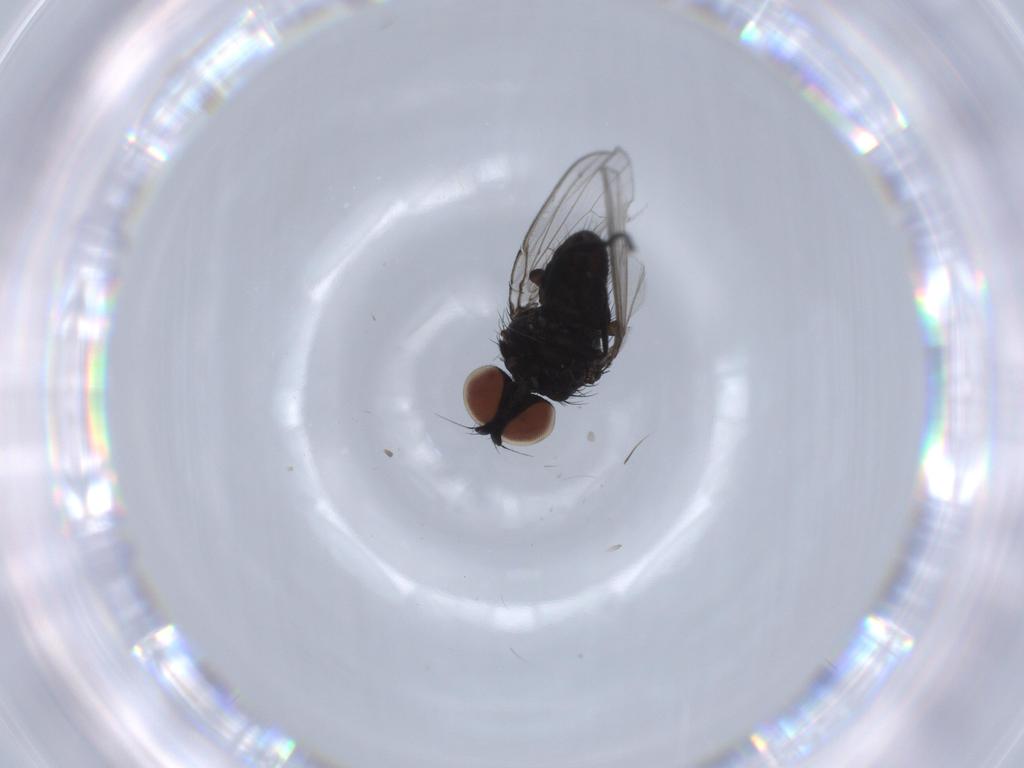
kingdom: Animalia
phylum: Arthropoda
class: Insecta
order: Diptera
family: Milichiidae
